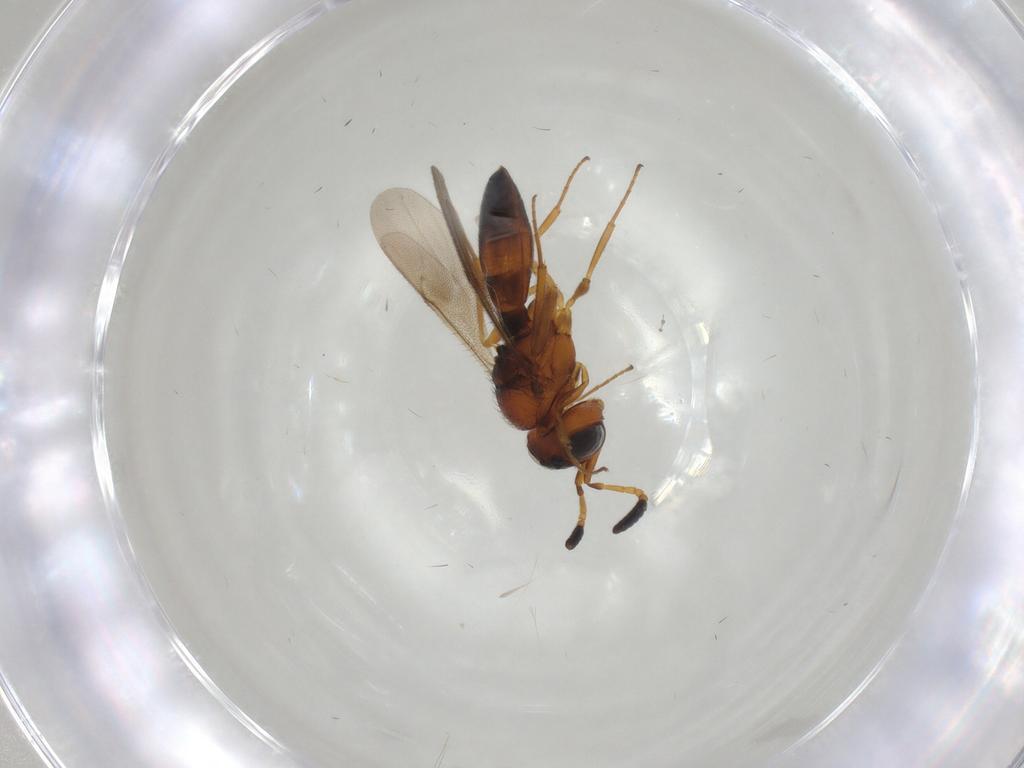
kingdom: Animalia
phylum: Arthropoda
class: Insecta
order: Hymenoptera
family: Scelionidae
